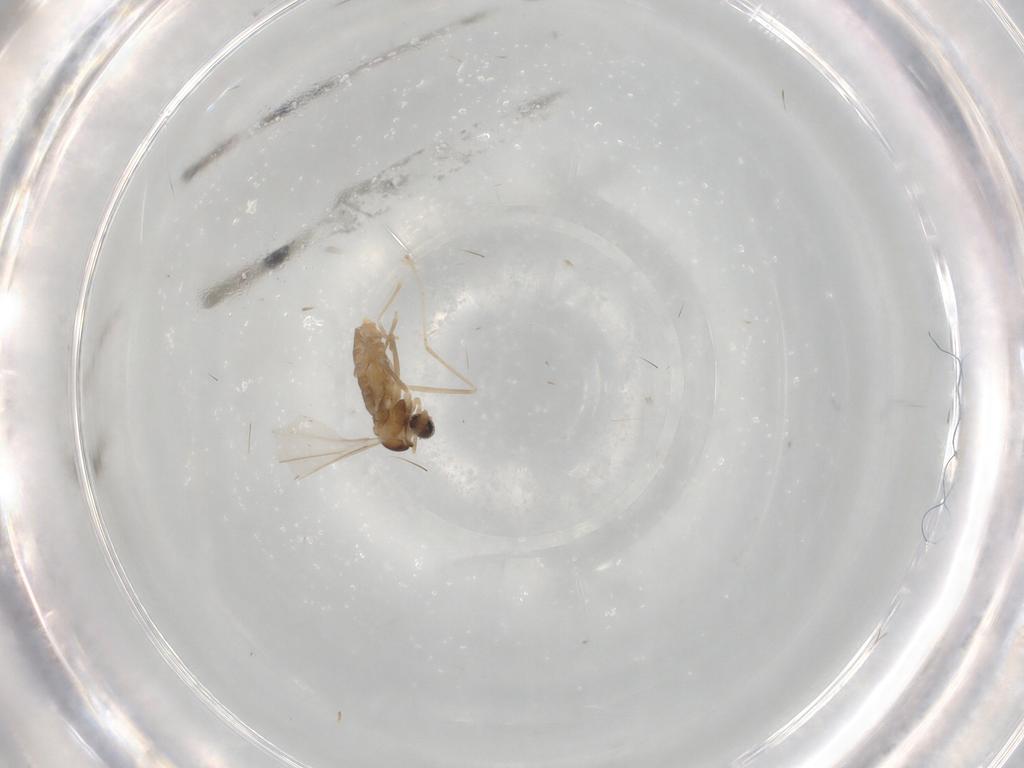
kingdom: Animalia
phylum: Arthropoda
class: Insecta
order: Diptera
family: Cecidomyiidae
